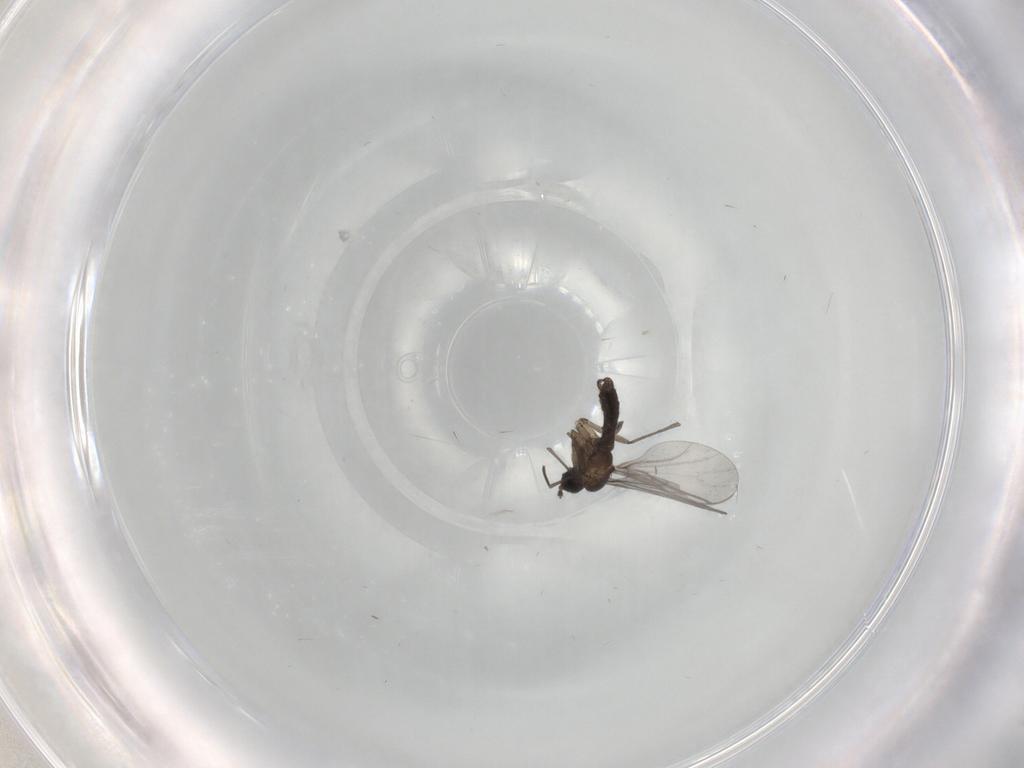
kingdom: Animalia
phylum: Arthropoda
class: Insecta
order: Diptera
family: Sciaridae
